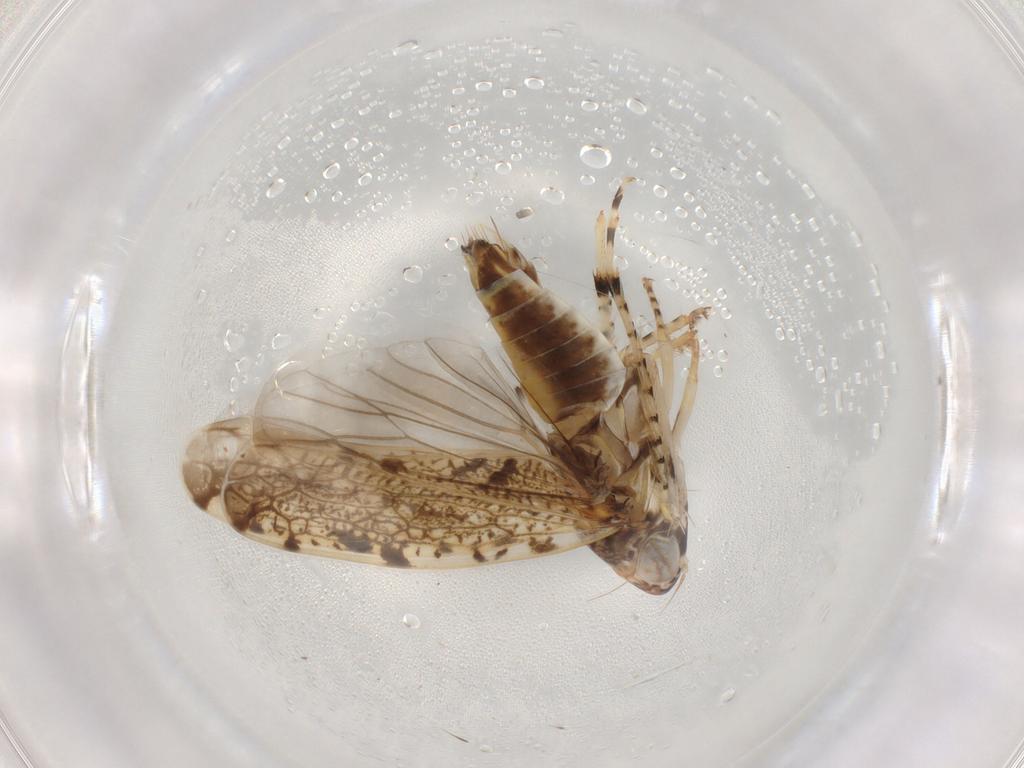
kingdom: Animalia
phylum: Arthropoda
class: Insecta
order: Hemiptera
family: Cicadellidae
